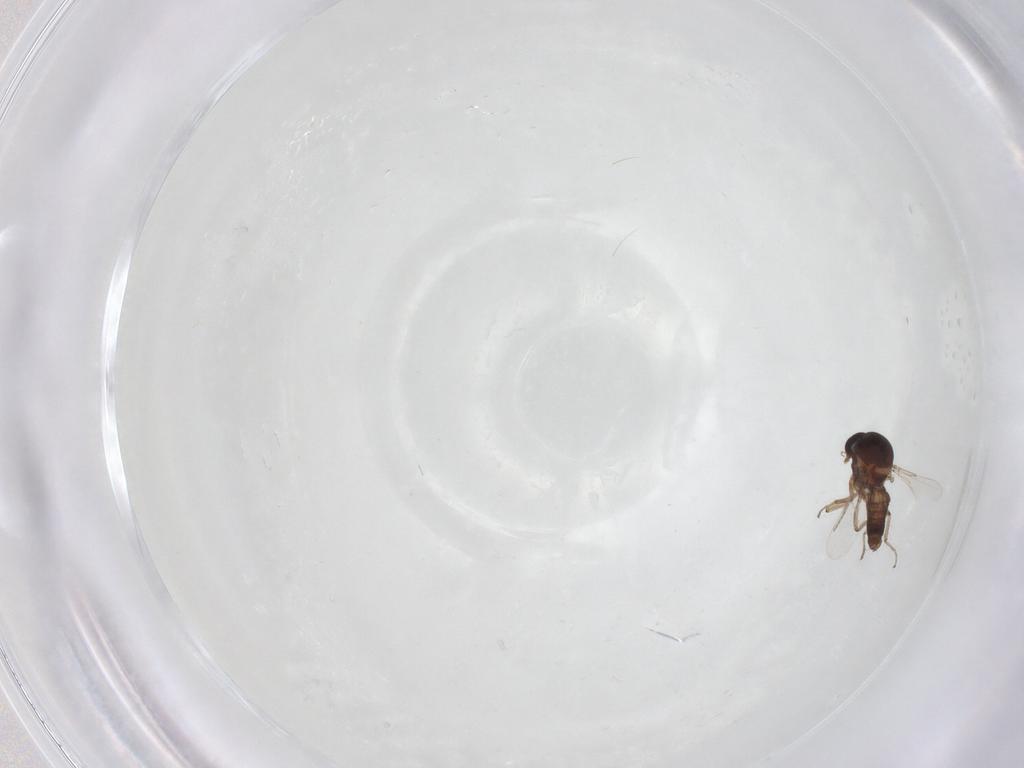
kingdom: Animalia
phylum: Arthropoda
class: Insecta
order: Diptera
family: Ceratopogonidae
